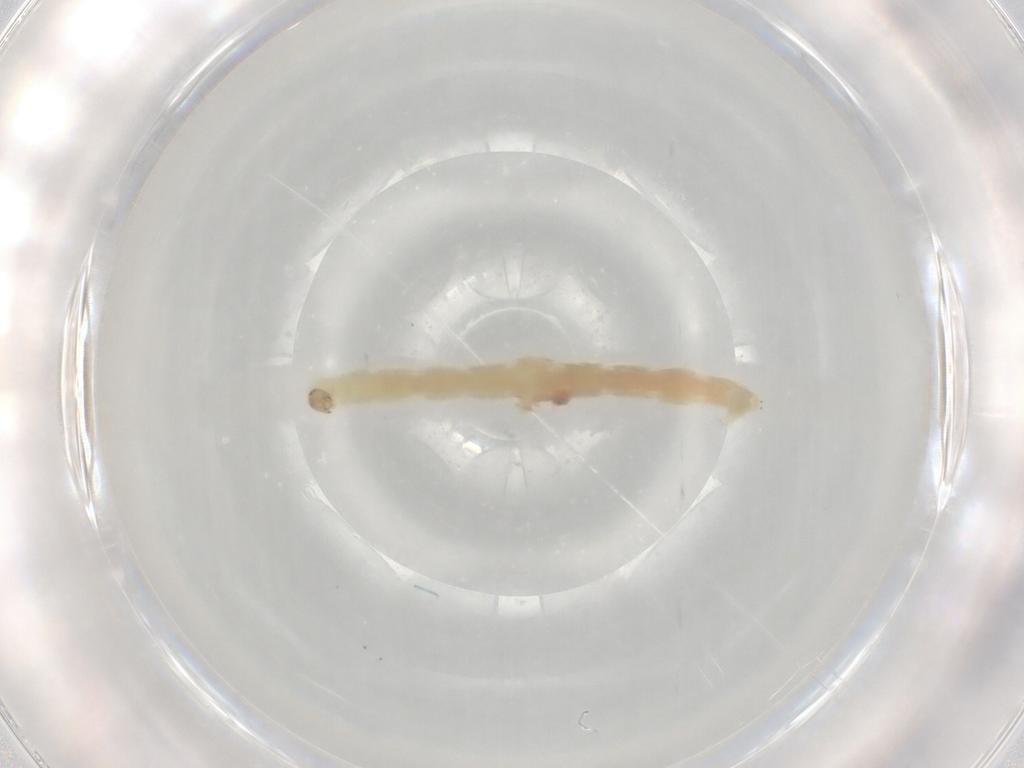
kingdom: Animalia
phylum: Arthropoda
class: Insecta
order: Diptera
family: Chironomidae
